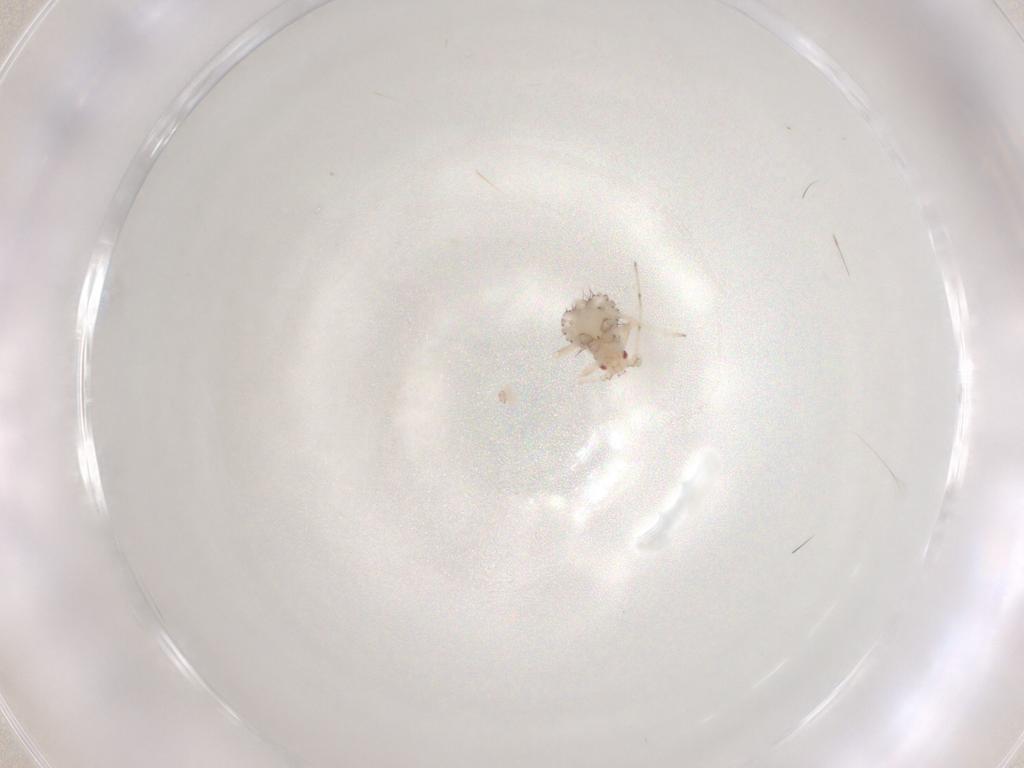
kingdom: Animalia
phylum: Arthropoda
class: Insecta
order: Hemiptera
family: Aphididae
